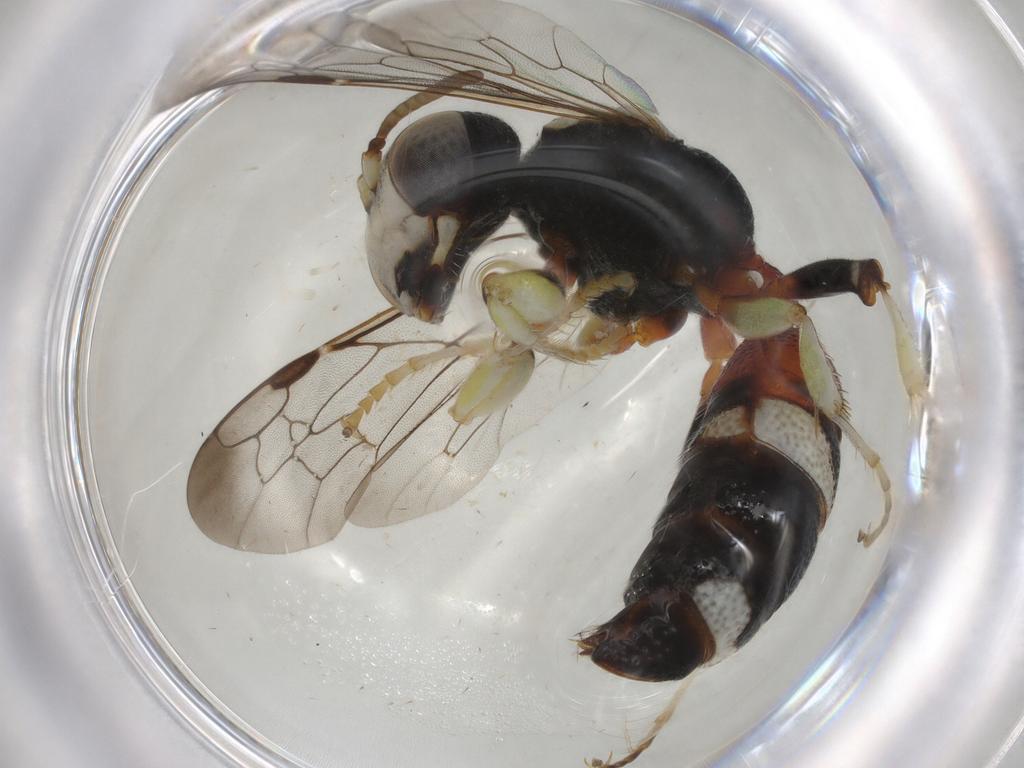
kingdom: Animalia
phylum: Arthropoda
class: Insecta
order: Hymenoptera
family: Crabronidae
